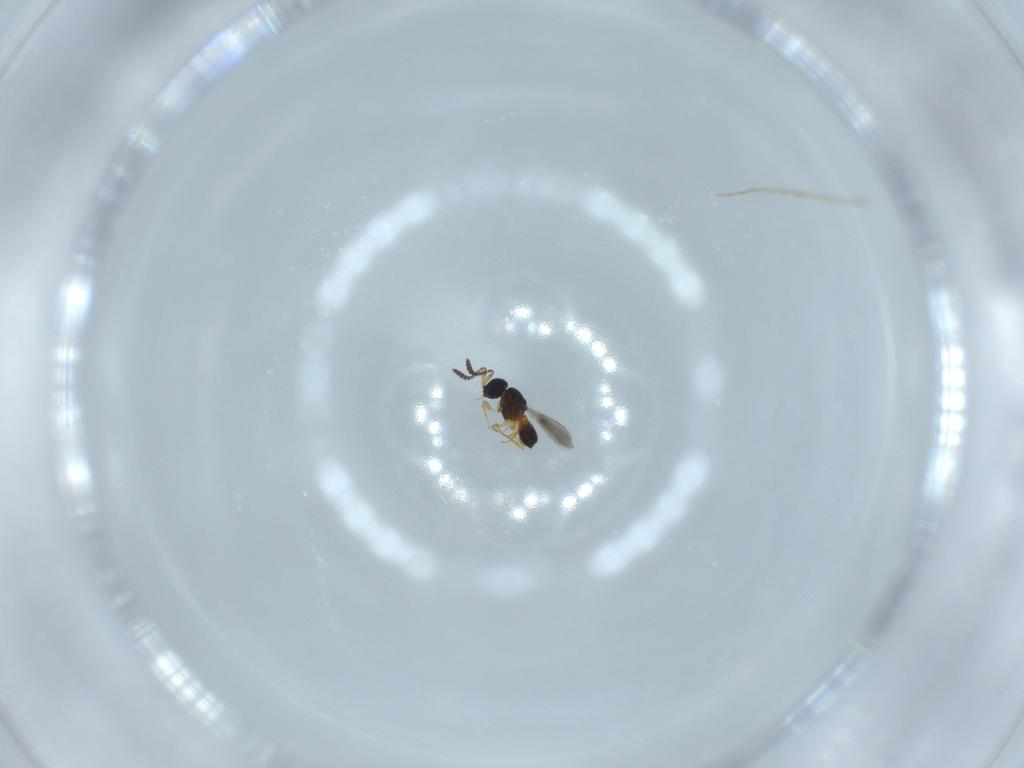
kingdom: Animalia
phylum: Arthropoda
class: Insecta
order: Hymenoptera
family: Scelionidae
